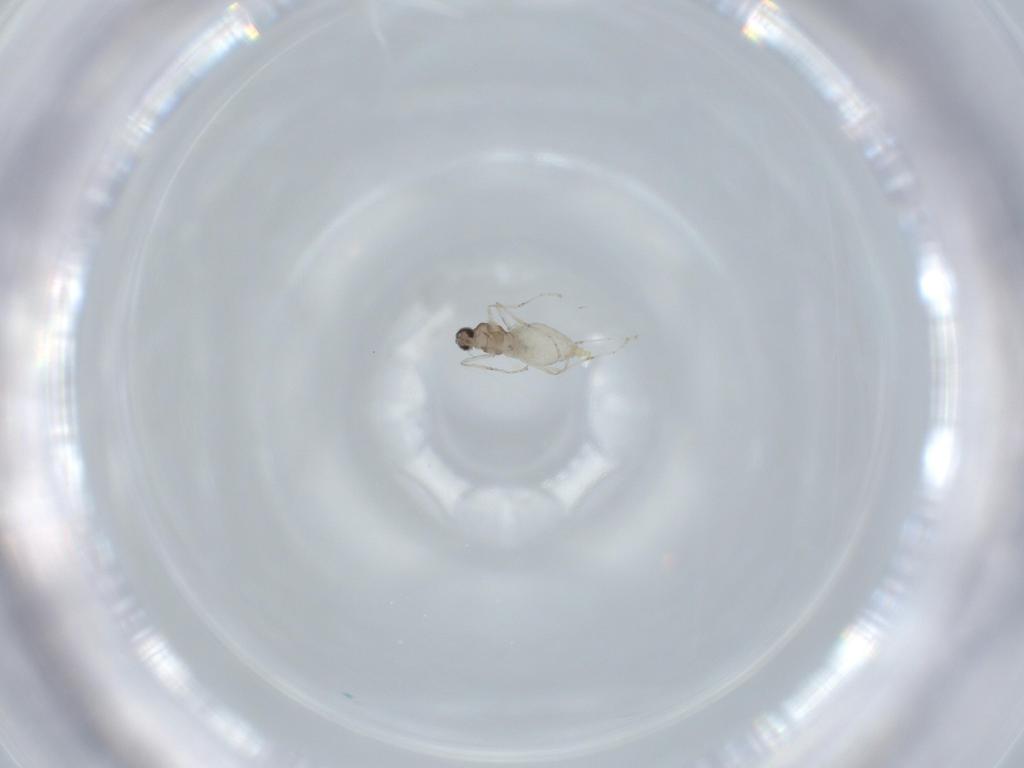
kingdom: Animalia
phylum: Arthropoda
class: Insecta
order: Diptera
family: Cecidomyiidae
